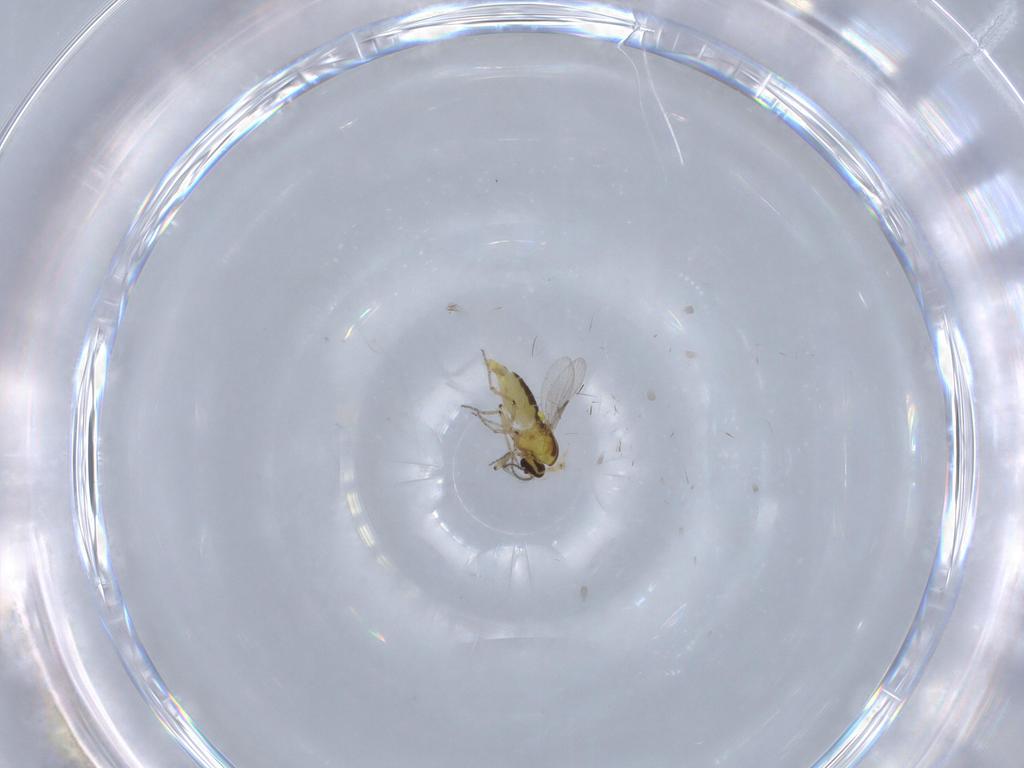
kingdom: Animalia
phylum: Arthropoda
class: Insecta
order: Diptera
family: Ceratopogonidae
